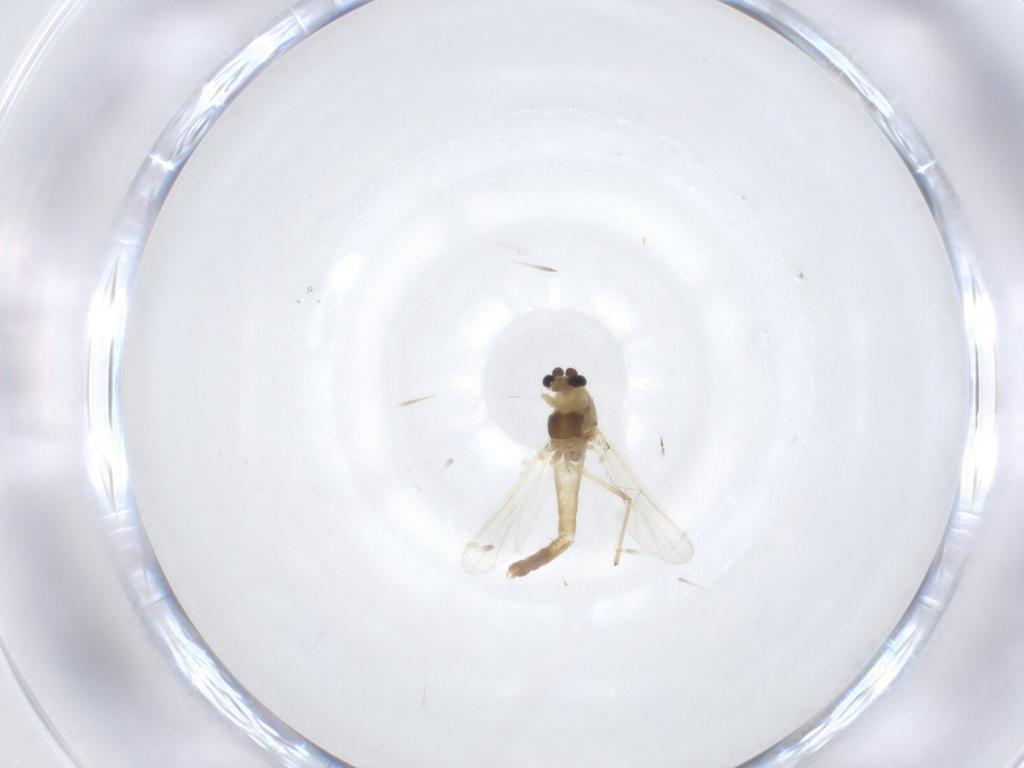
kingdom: Animalia
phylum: Arthropoda
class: Insecta
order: Diptera
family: Chironomidae
